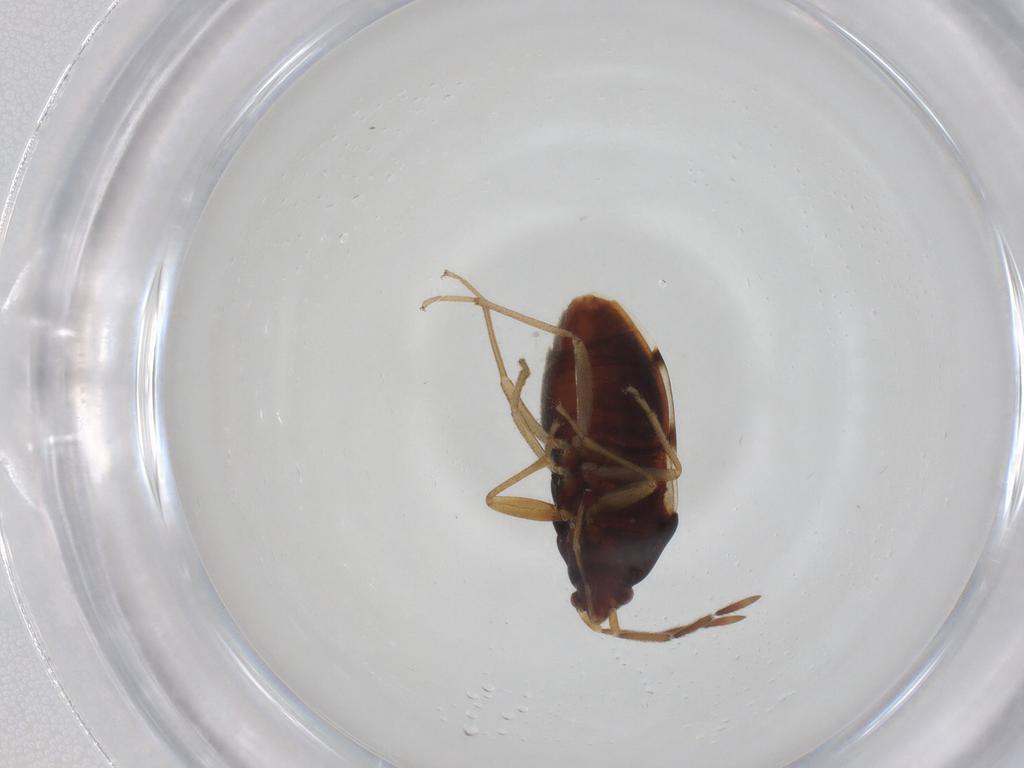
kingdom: Animalia
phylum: Arthropoda
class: Insecta
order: Hemiptera
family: Rhyparochromidae
